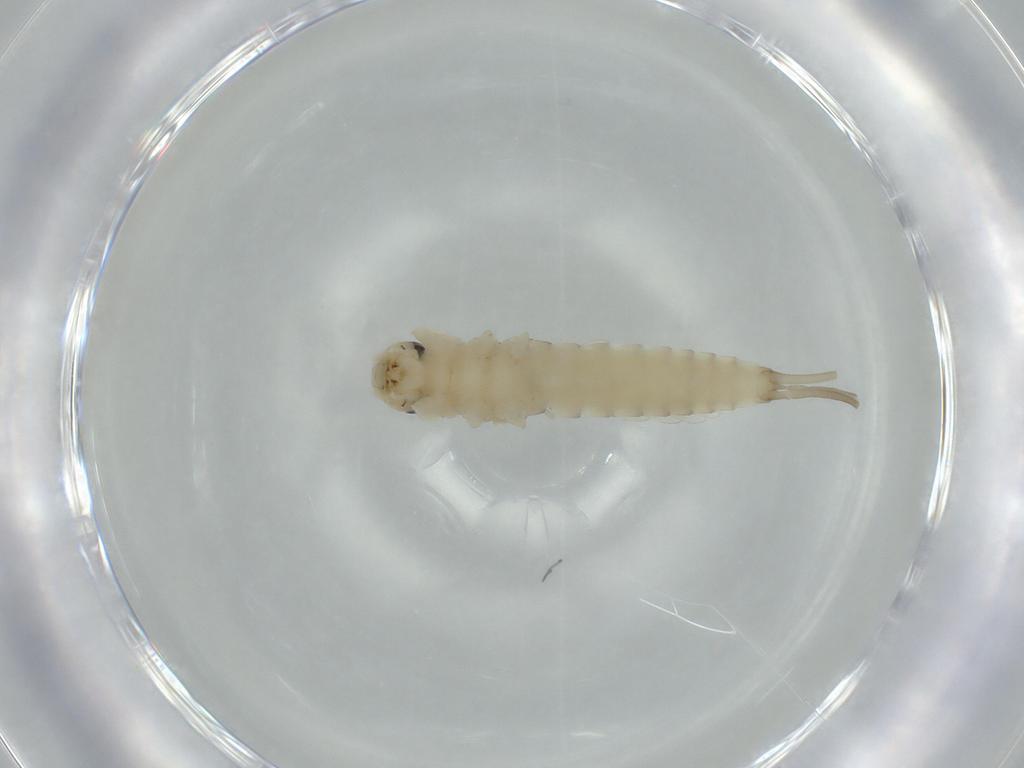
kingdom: Animalia
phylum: Arthropoda
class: Insecta
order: Ephemeroptera
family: Baetidae
